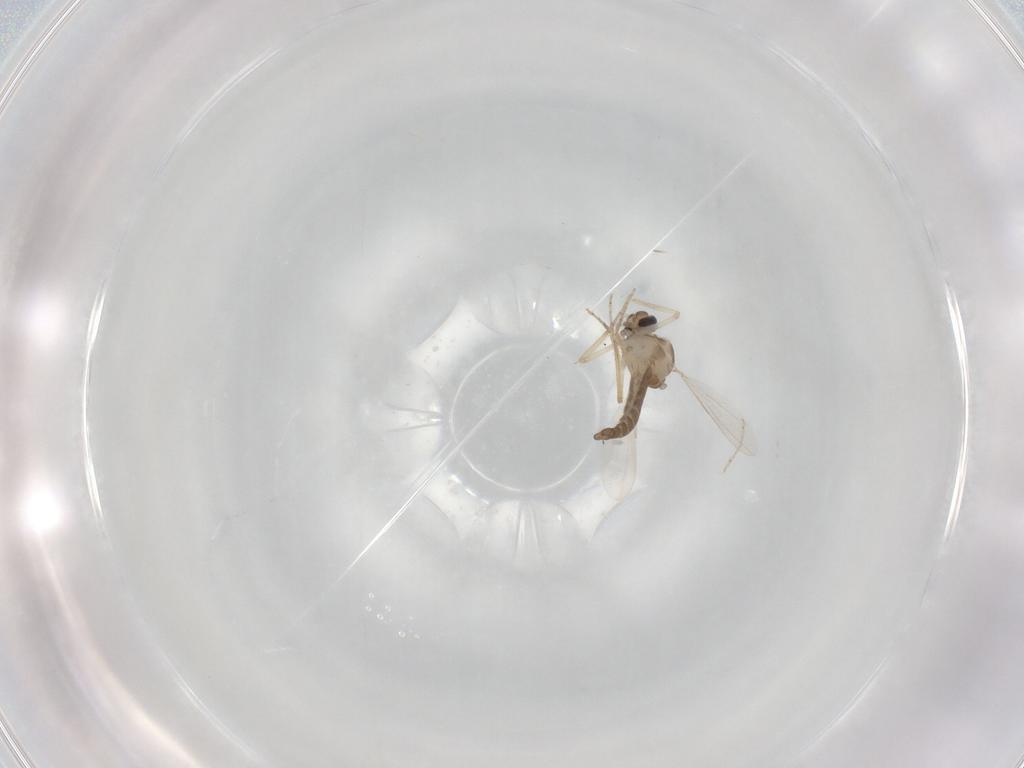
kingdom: Animalia
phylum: Arthropoda
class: Insecta
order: Diptera
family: Ceratopogonidae
